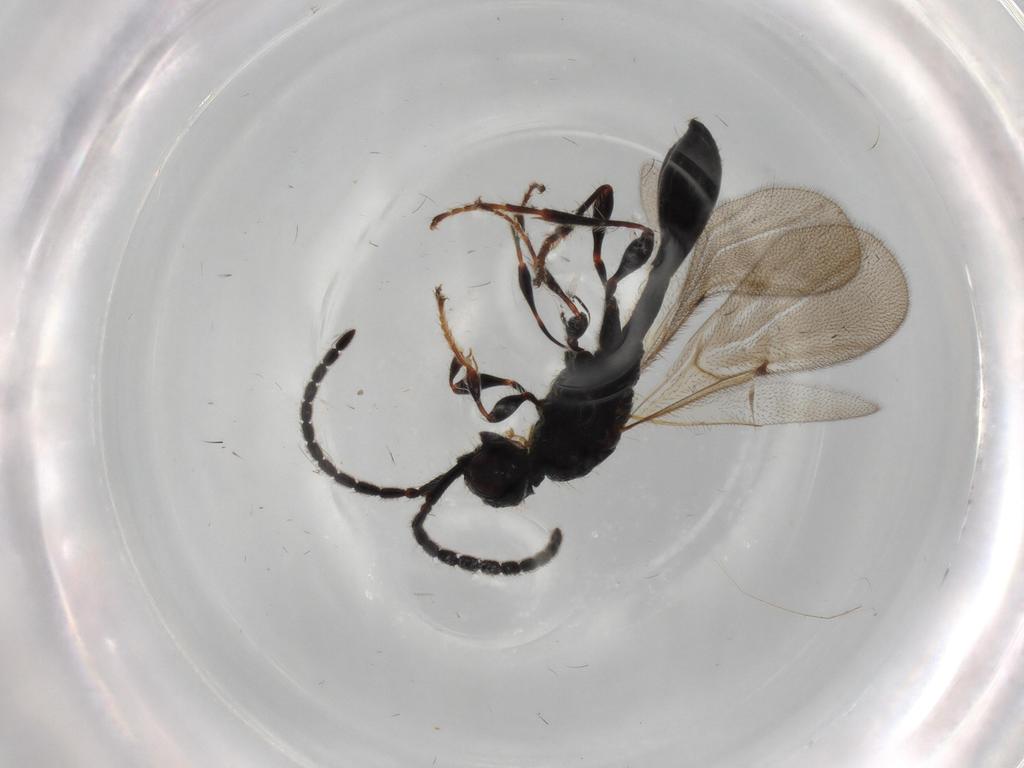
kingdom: Animalia
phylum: Arthropoda
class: Insecta
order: Hymenoptera
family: Diapriidae
